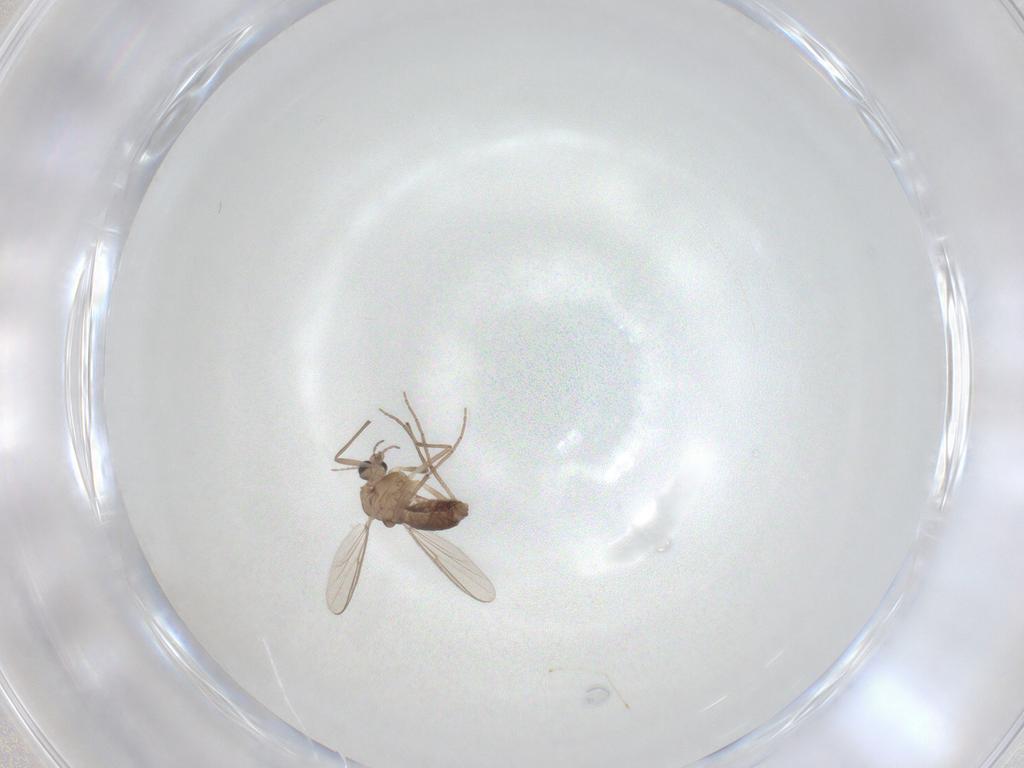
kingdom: Animalia
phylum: Arthropoda
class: Insecta
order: Diptera
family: Chironomidae
